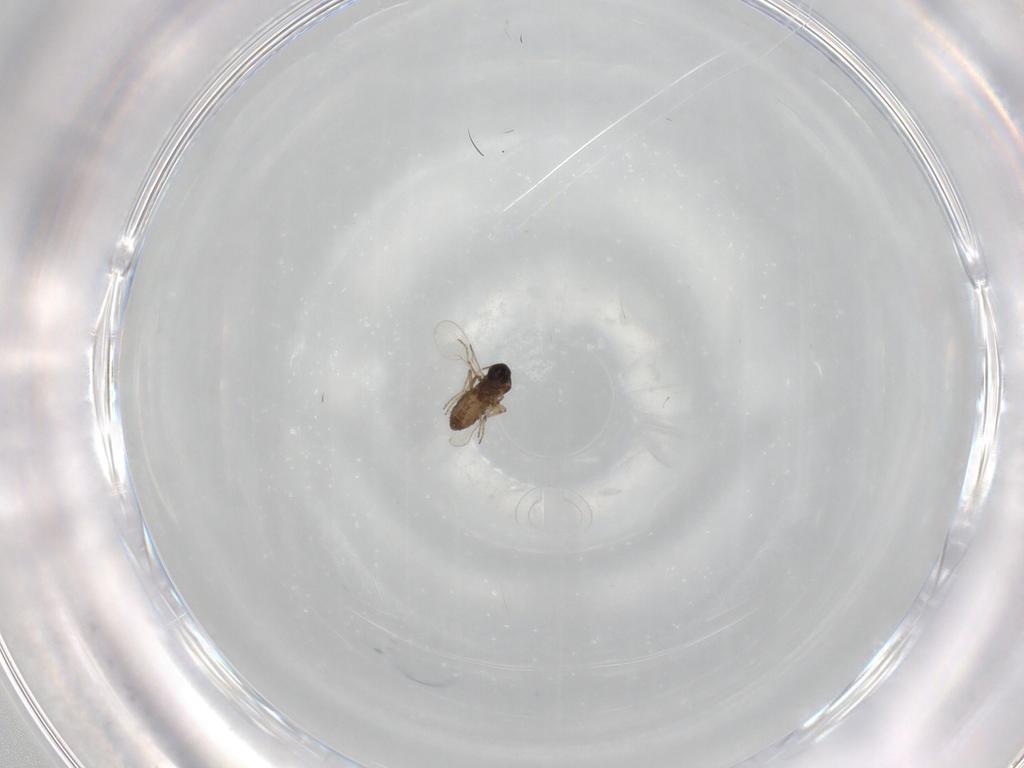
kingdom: Animalia
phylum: Arthropoda
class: Insecta
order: Diptera
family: Ceratopogonidae
